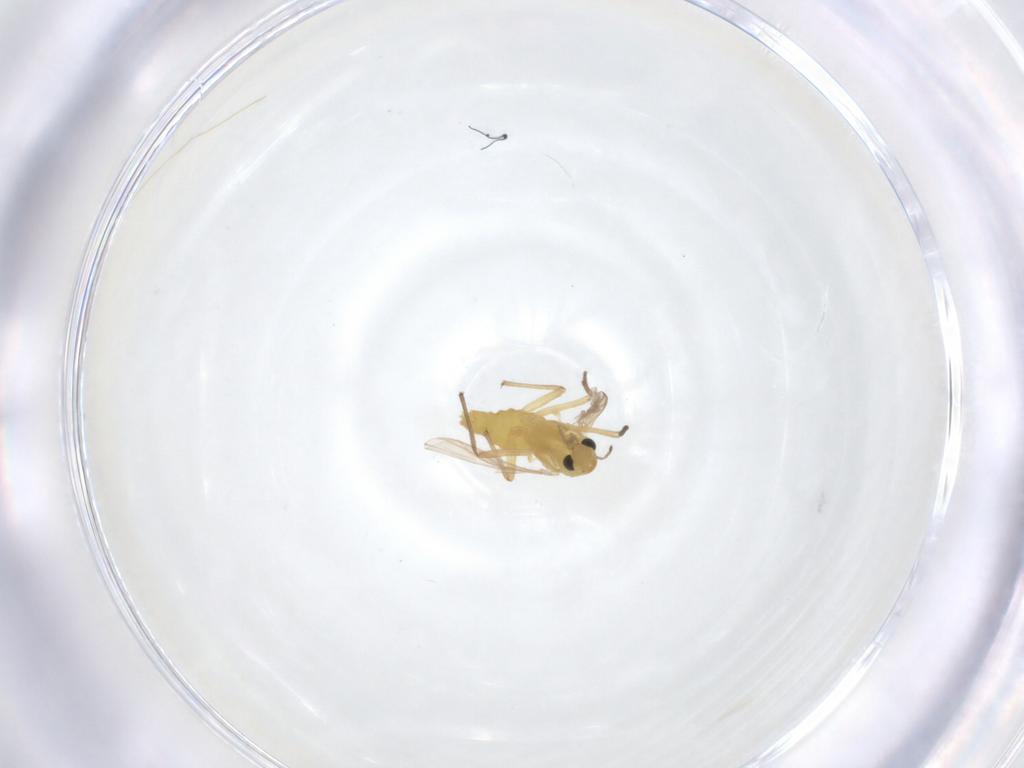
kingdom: Animalia
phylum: Arthropoda
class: Insecta
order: Diptera
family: Chironomidae
